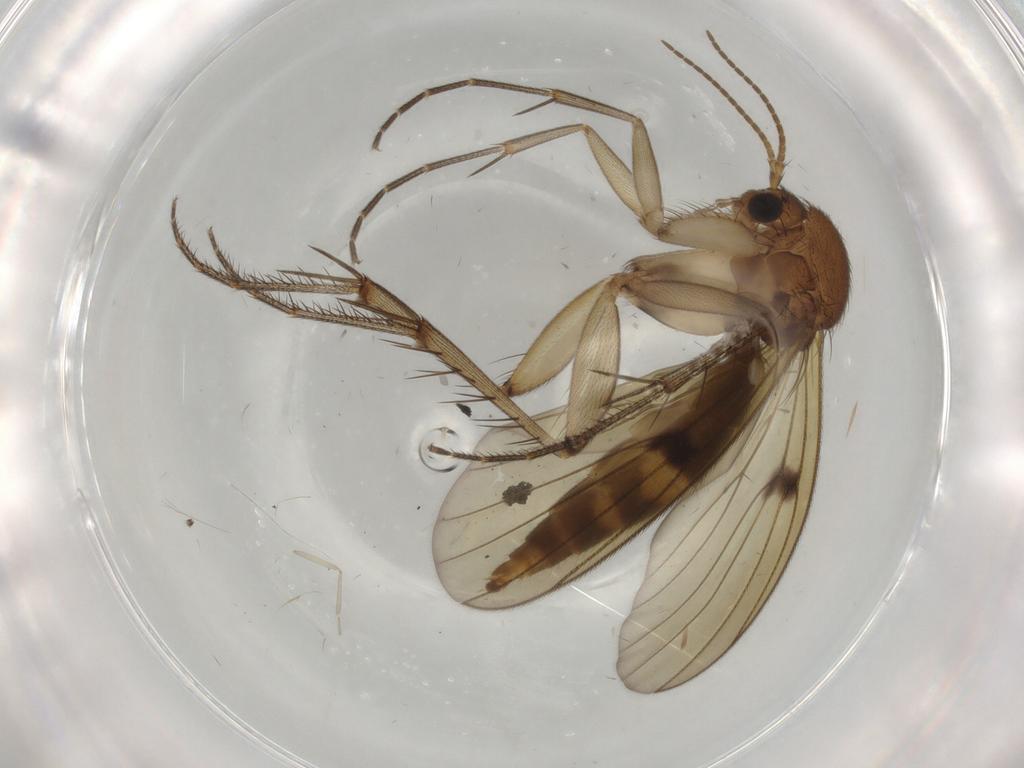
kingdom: Animalia
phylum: Arthropoda
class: Insecta
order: Diptera
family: Mycetophilidae
